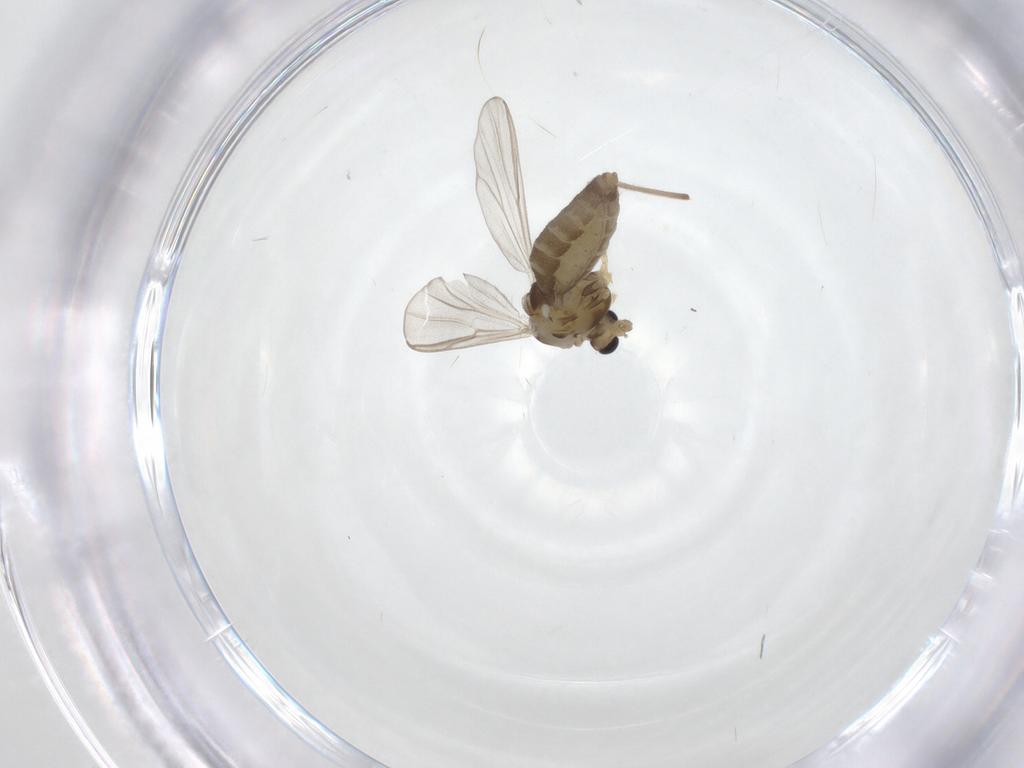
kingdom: Animalia
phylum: Arthropoda
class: Insecta
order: Diptera
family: Chironomidae
